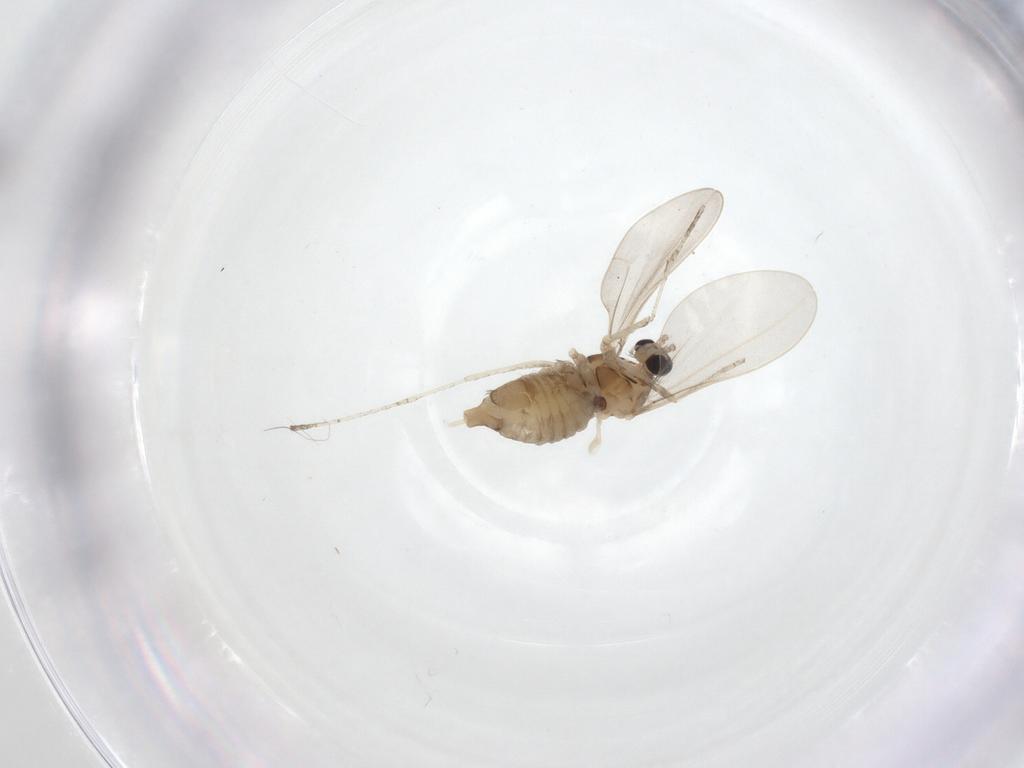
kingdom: Animalia
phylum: Arthropoda
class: Insecta
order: Diptera
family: Cecidomyiidae
